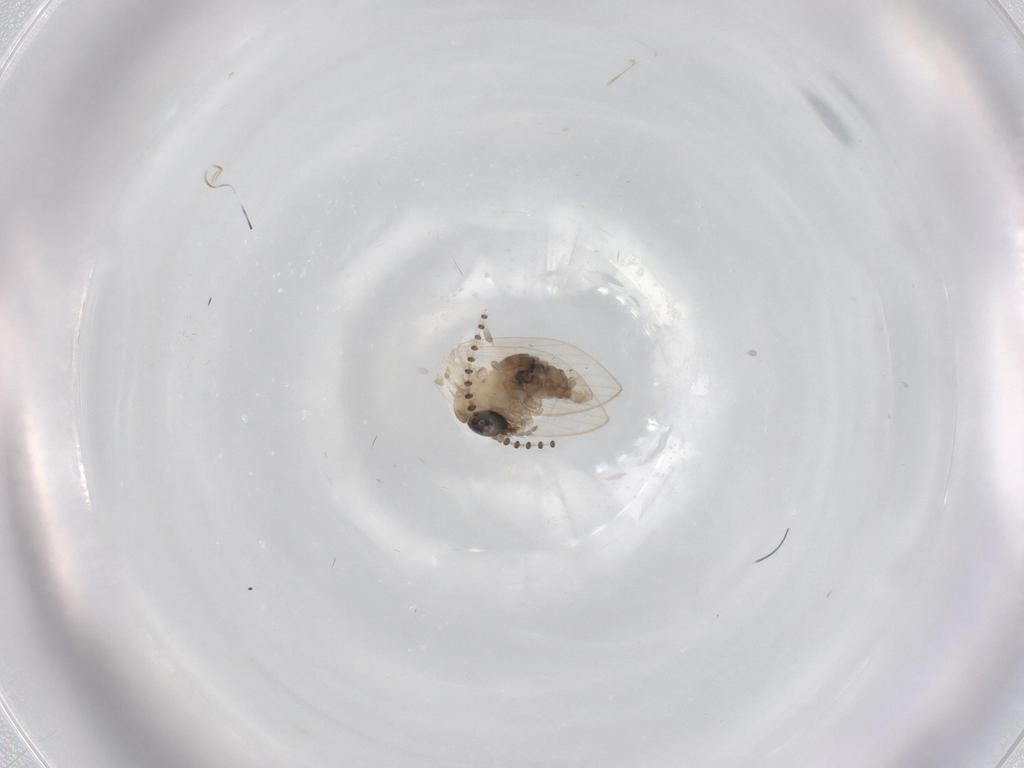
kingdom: Animalia
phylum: Arthropoda
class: Insecta
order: Diptera
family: Psychodidae
